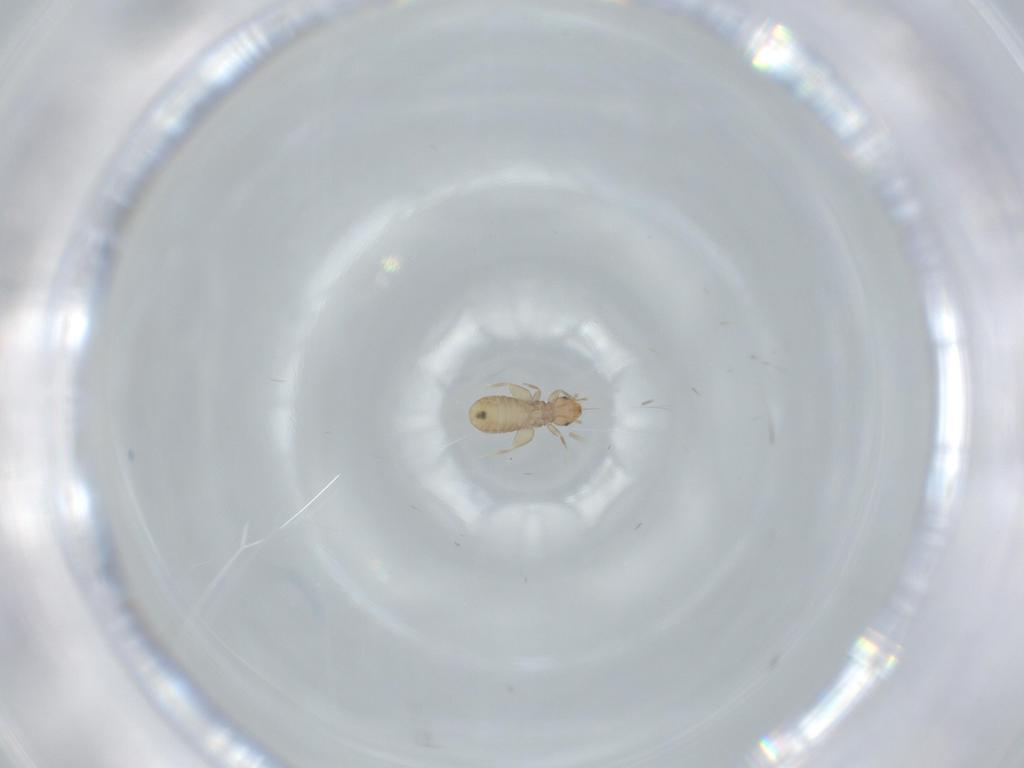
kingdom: Animalia
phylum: Arthropoda
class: Insecta
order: Psocodea
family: Liposcelididae
